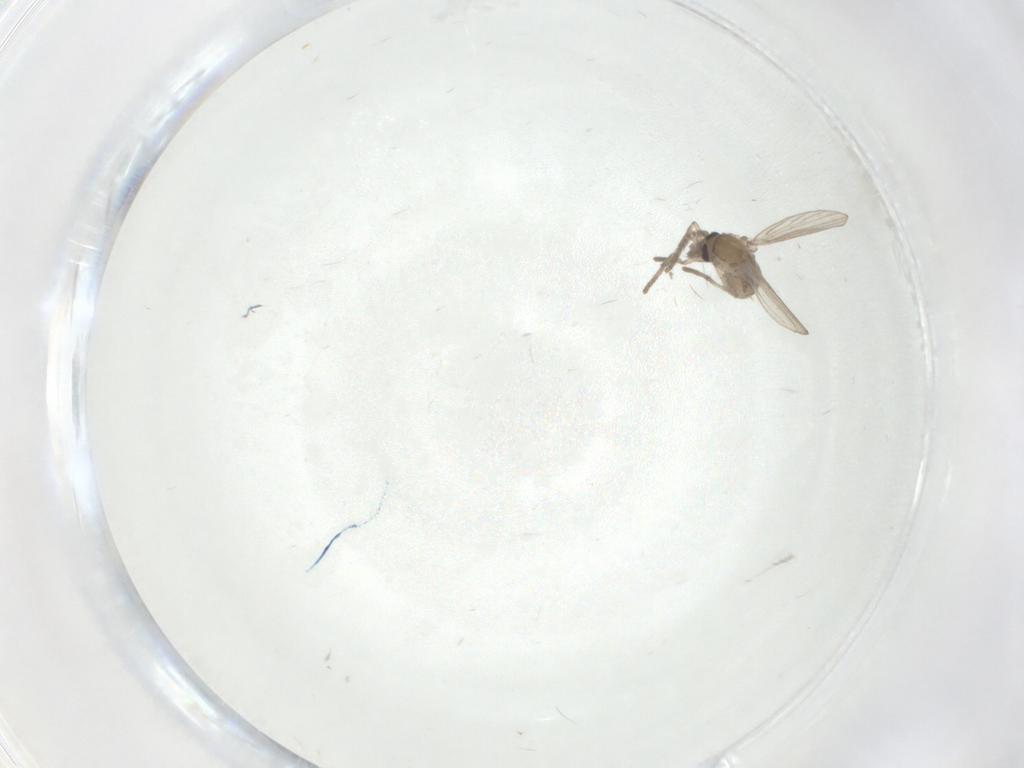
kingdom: Animalia
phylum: Arthropoda
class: Insecta
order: Diptera
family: Psychodidae
